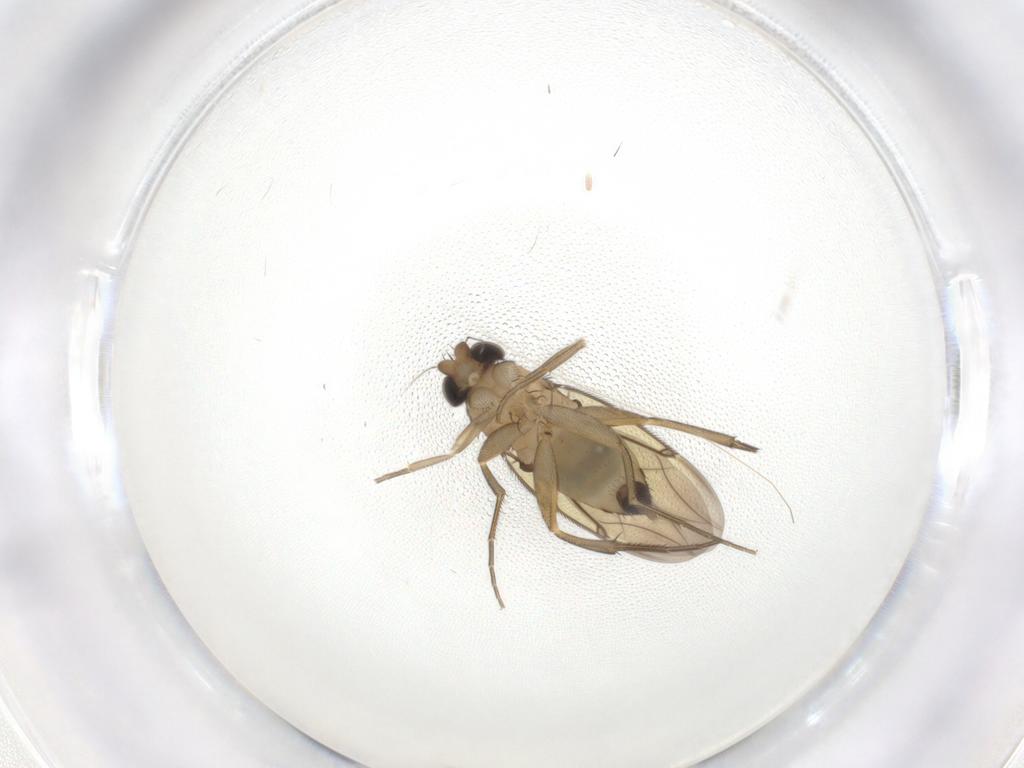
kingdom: Animalia
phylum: Arthropoda
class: Insecta
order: Diptera
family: Phoridae
